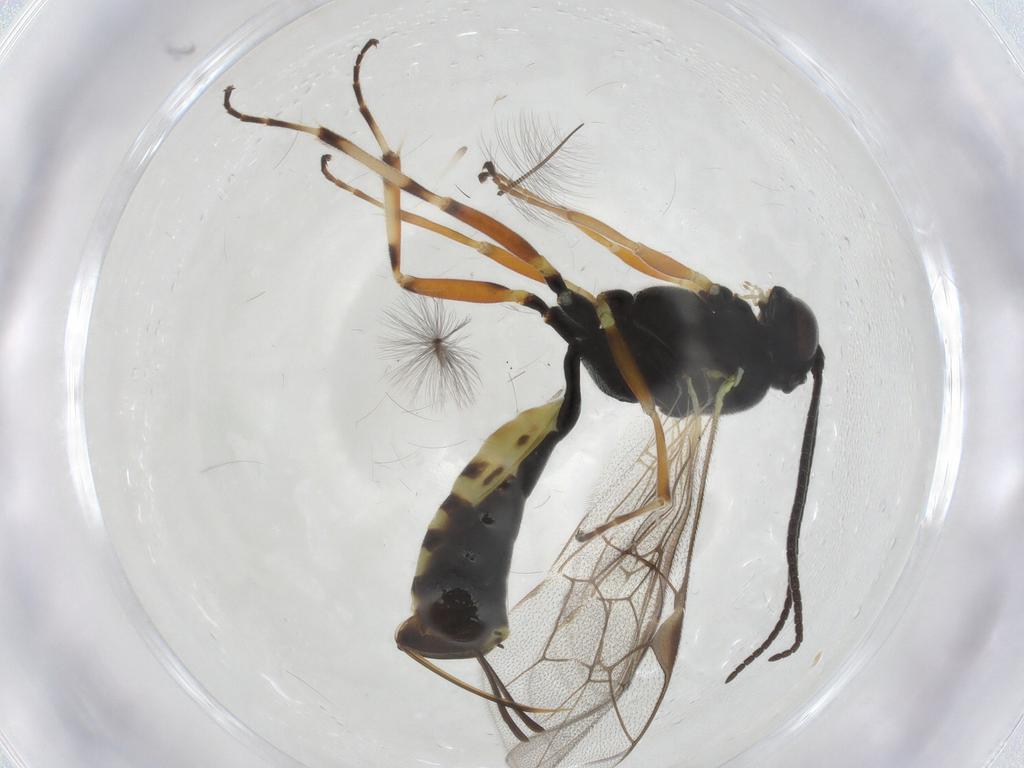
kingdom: Animalia
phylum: Arthropoda
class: Insecta
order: Hymenoptera
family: Ichneumonidae
